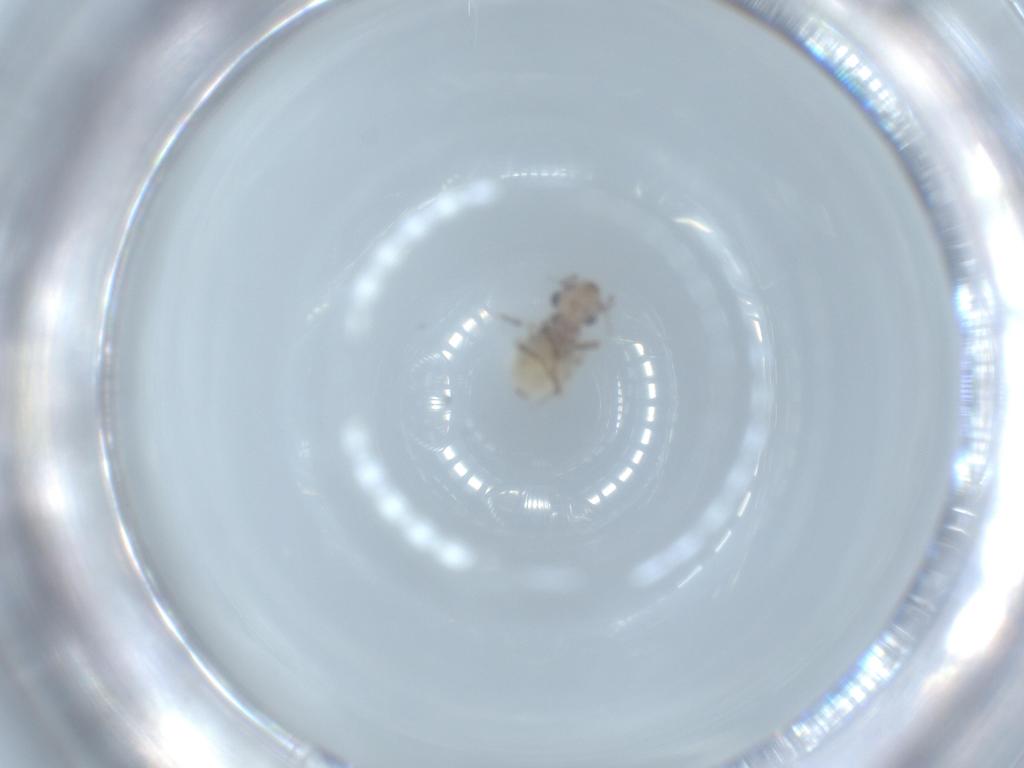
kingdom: Animalia
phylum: Arthropoda
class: Insecta
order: Psocodea
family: Lepidopsocidae
